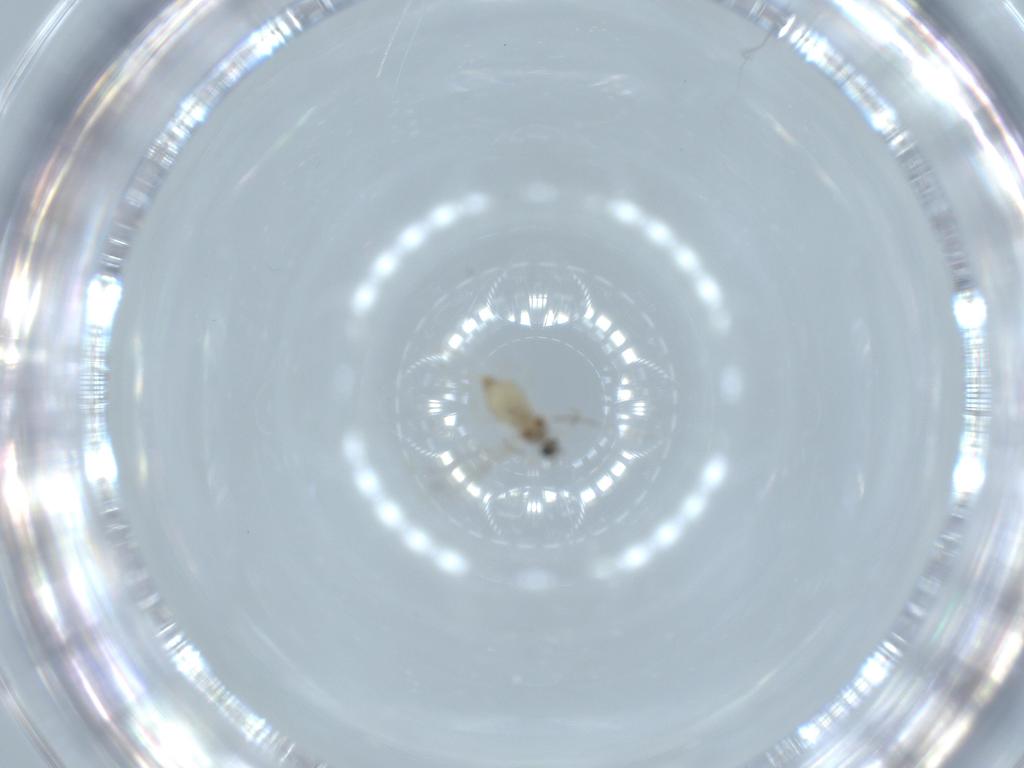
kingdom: Animalia
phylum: Arthropoda
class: Insecta
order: Diptera
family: Cecidomyiidae
